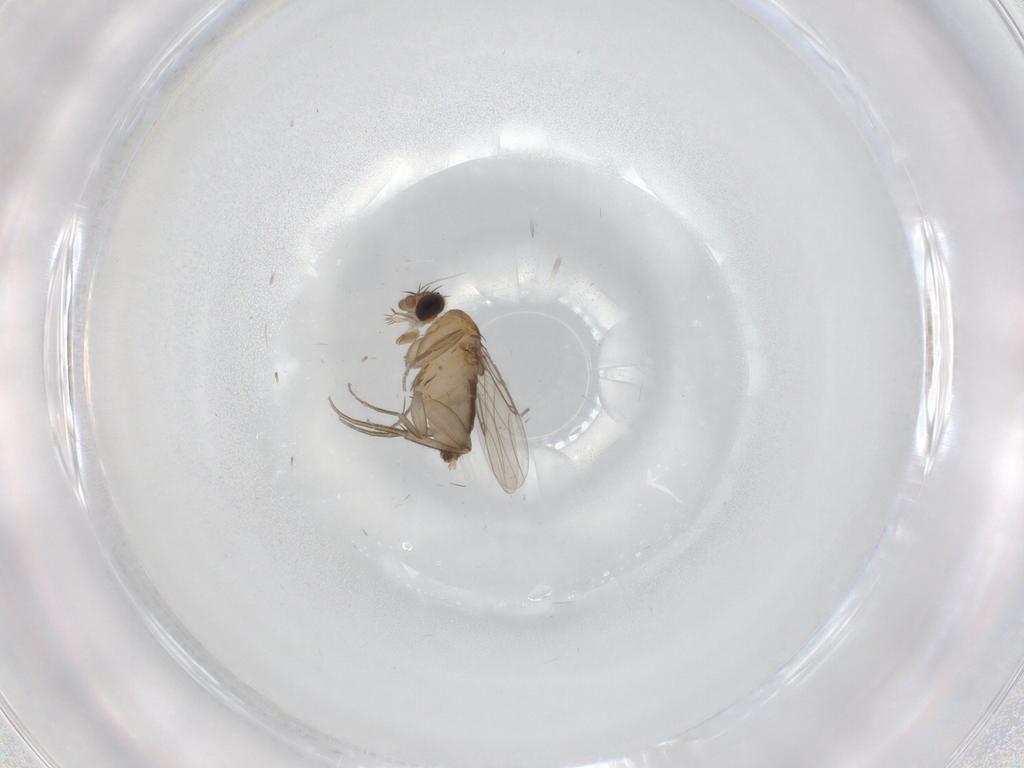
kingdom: Animalia
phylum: Arthropoda
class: Insecta
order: Diptera
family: Phoridae
